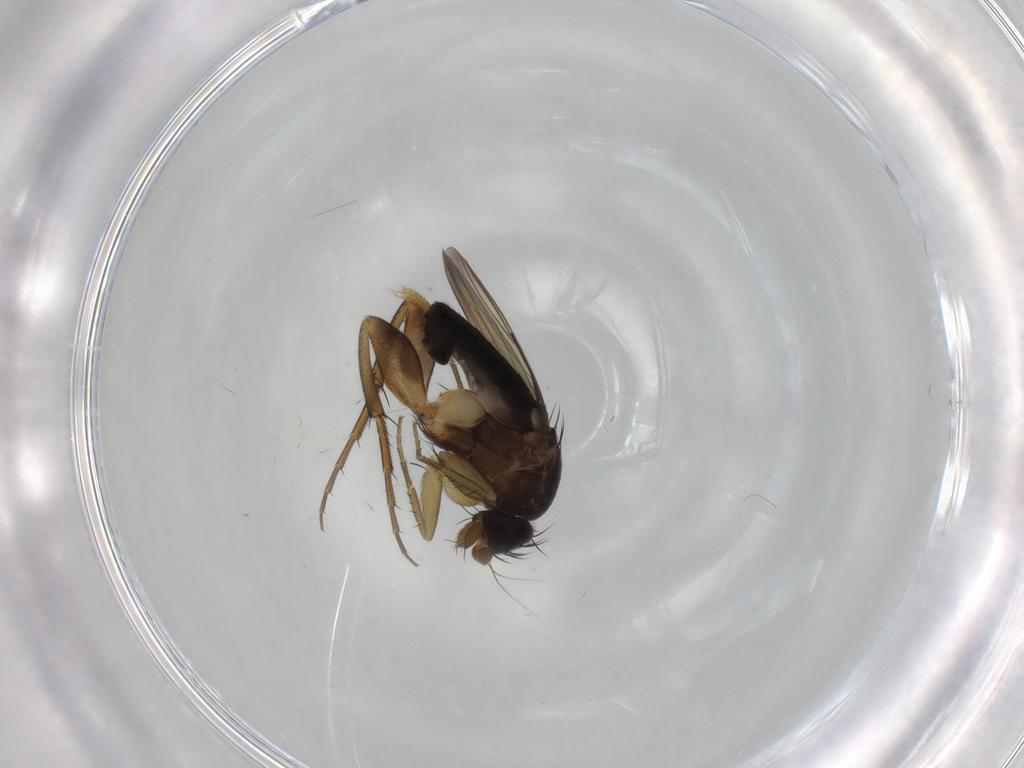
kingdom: Animalia
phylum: Arthropoda
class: Insecta
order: Diptera
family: Phoridae
